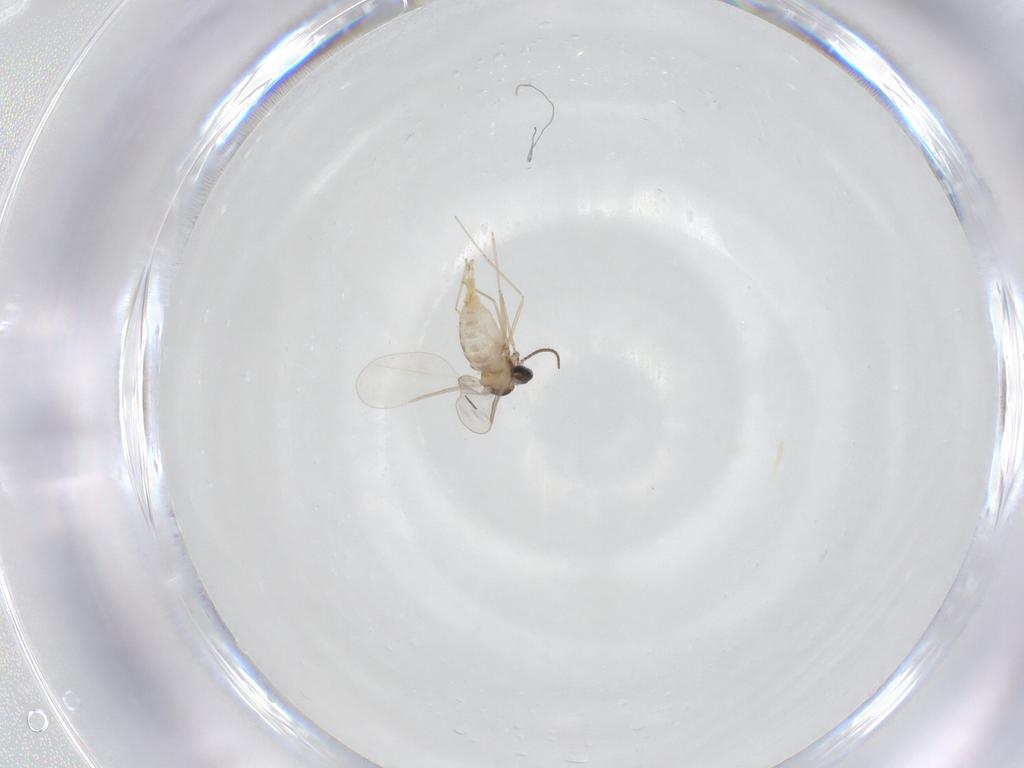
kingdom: Animalia
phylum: Arthropoda
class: Insecta
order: Diptera
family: Cecidomyiidae
